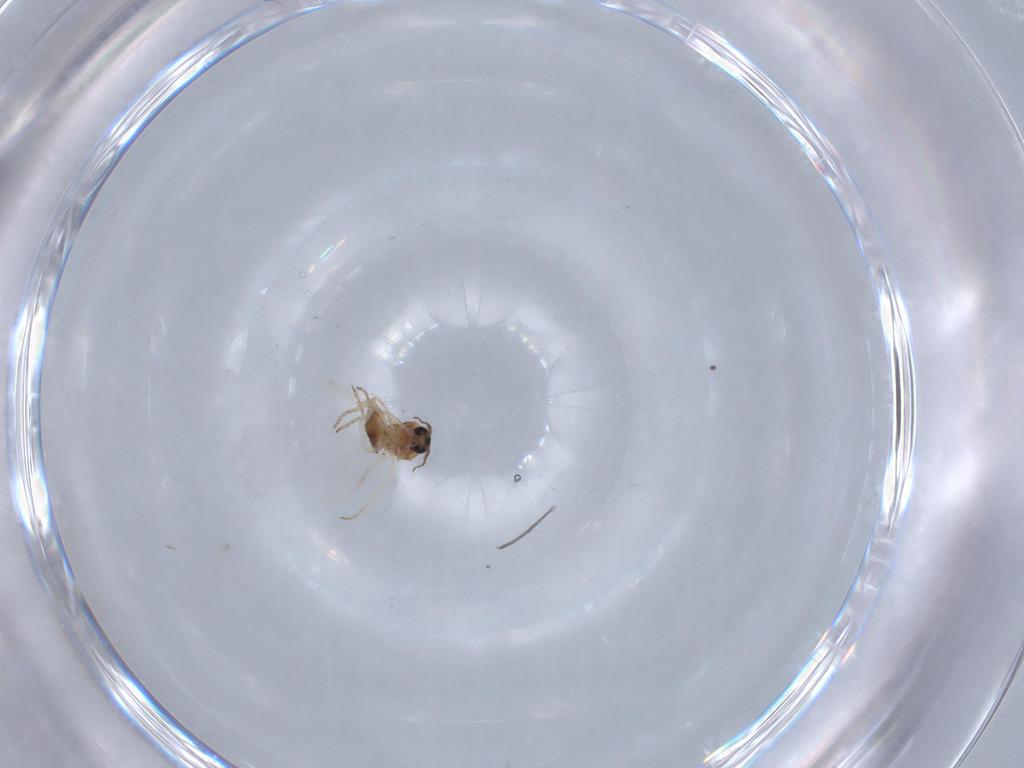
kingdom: Animalia
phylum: Arthropoda
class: Insecta
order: Diptera
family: Ceratopogonidae
